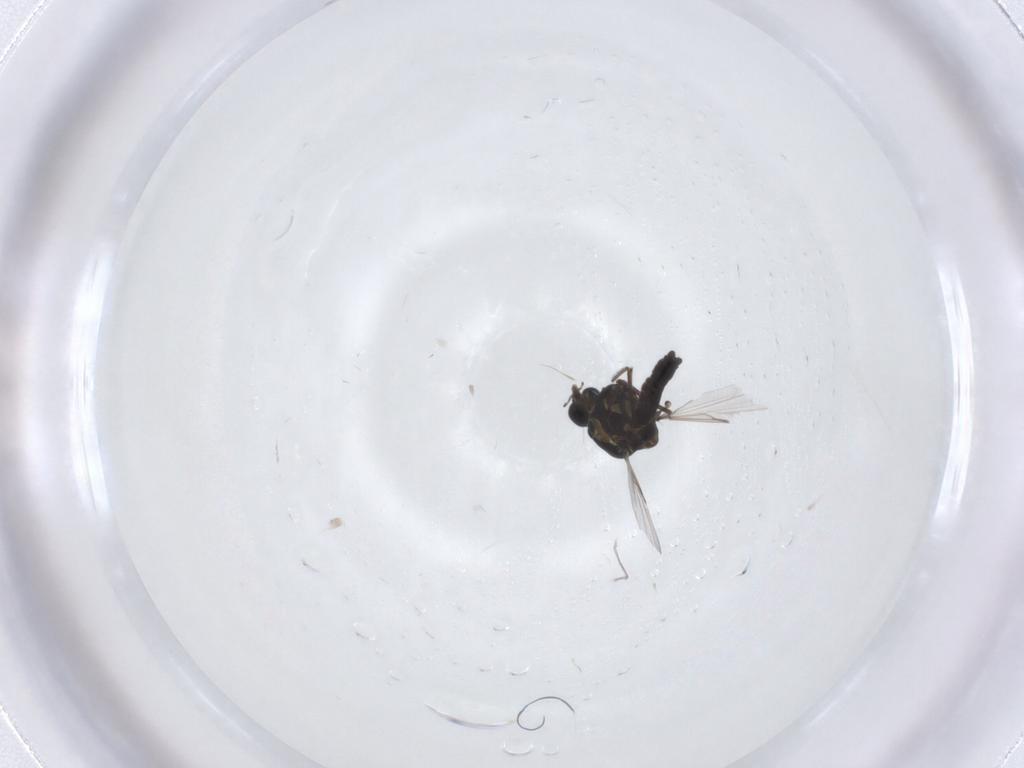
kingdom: Animalia
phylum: Arthropoda
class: Insecta
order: Diptera
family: Ceratopogonidae
